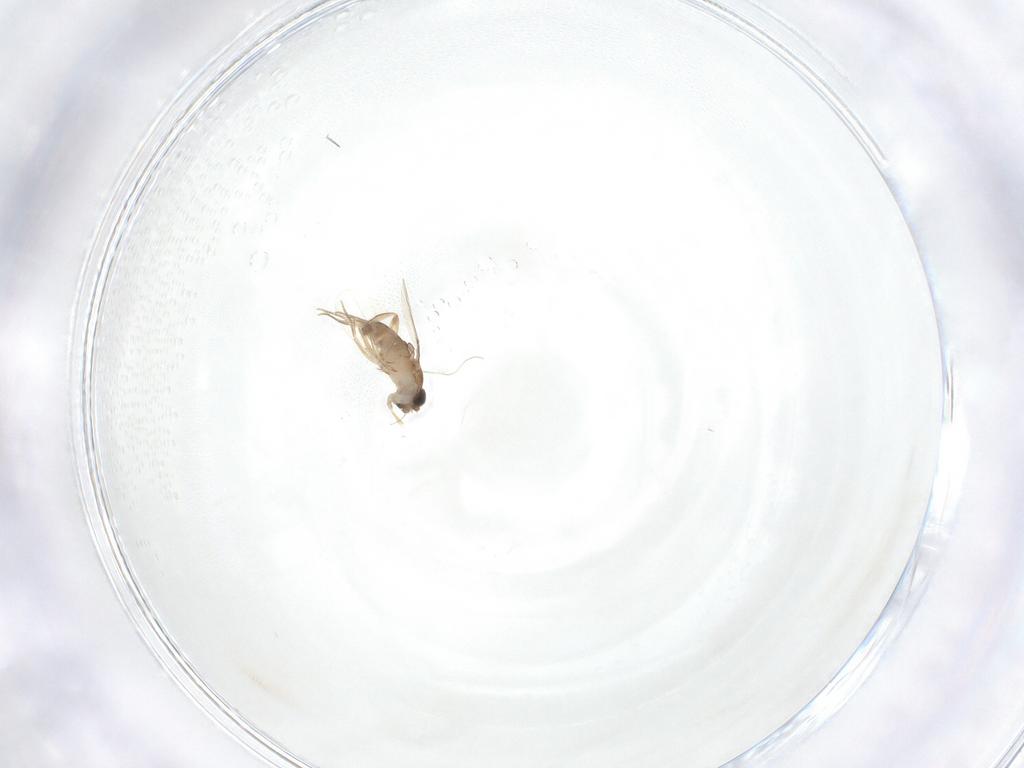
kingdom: Animalia
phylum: Arthropoda
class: Insecta
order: Diptera
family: Phoridae
